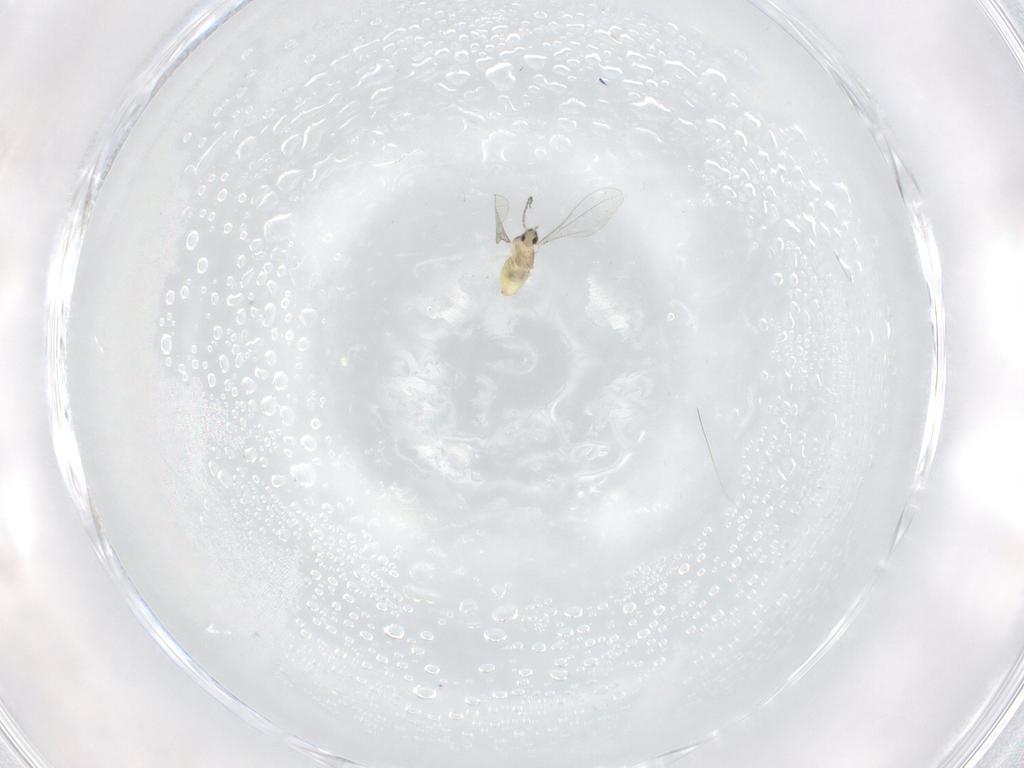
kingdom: Animalia
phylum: Arthropoda
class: Insecta
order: Diptera
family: Cecidomyiidae
